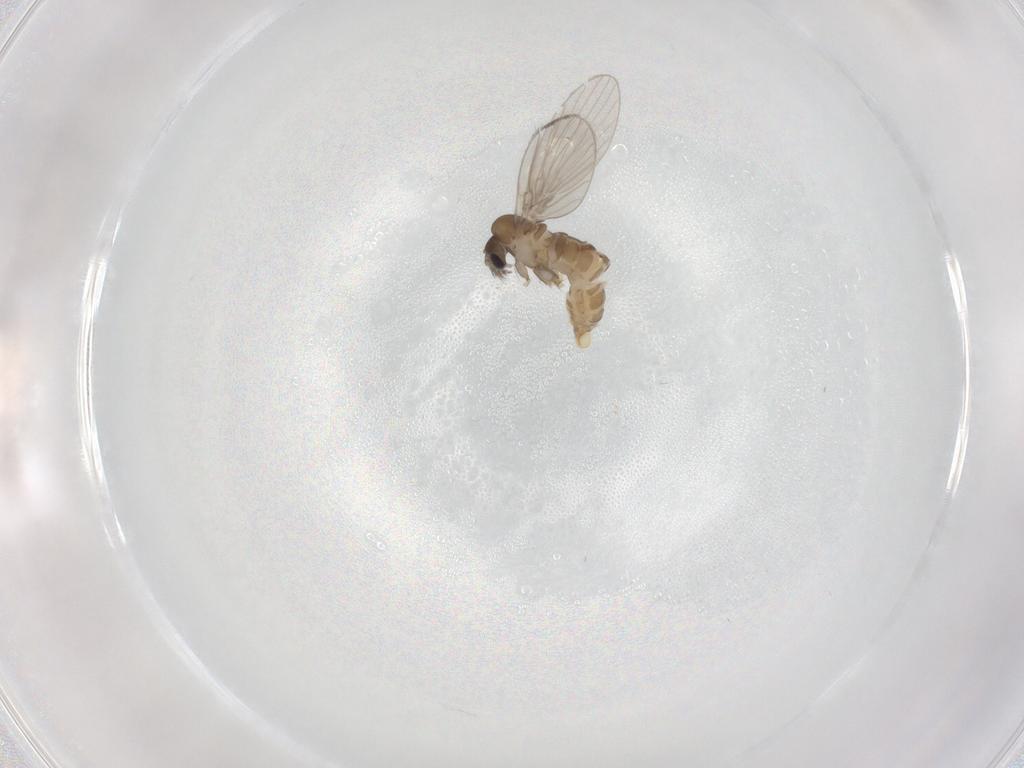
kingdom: Animalia
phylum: Arthropoda
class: Insecta
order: Diptera
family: Psychodidae
